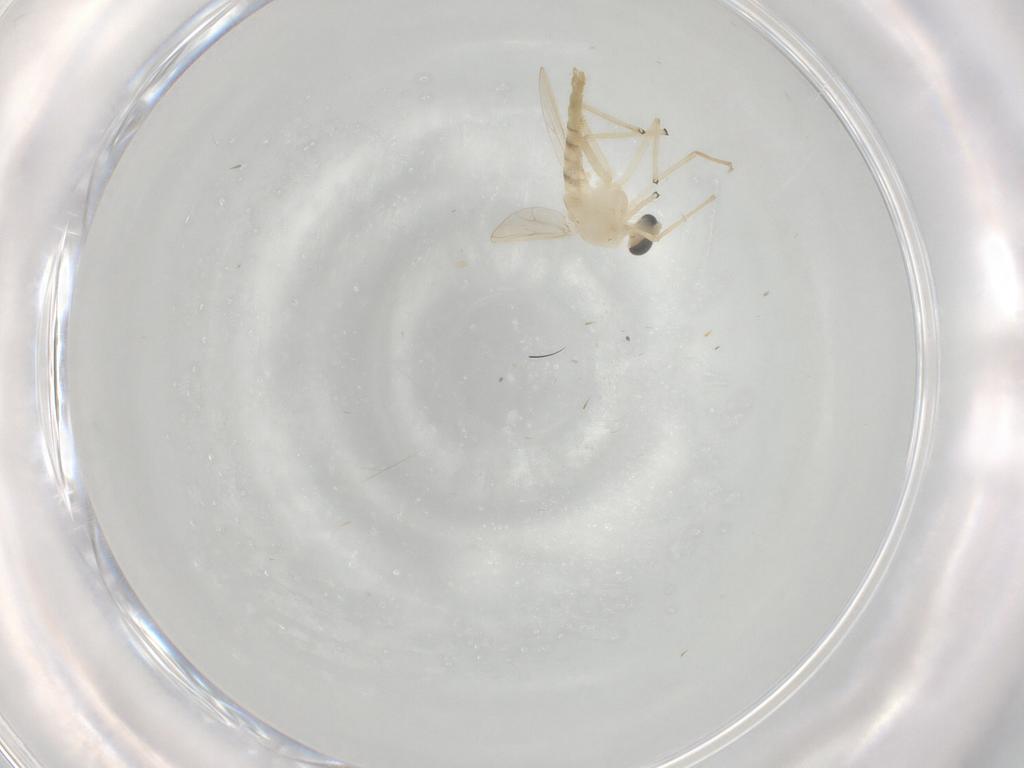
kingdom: Animalia
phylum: Arthropoda
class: Insecta
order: Diptera
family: Chironomidae
